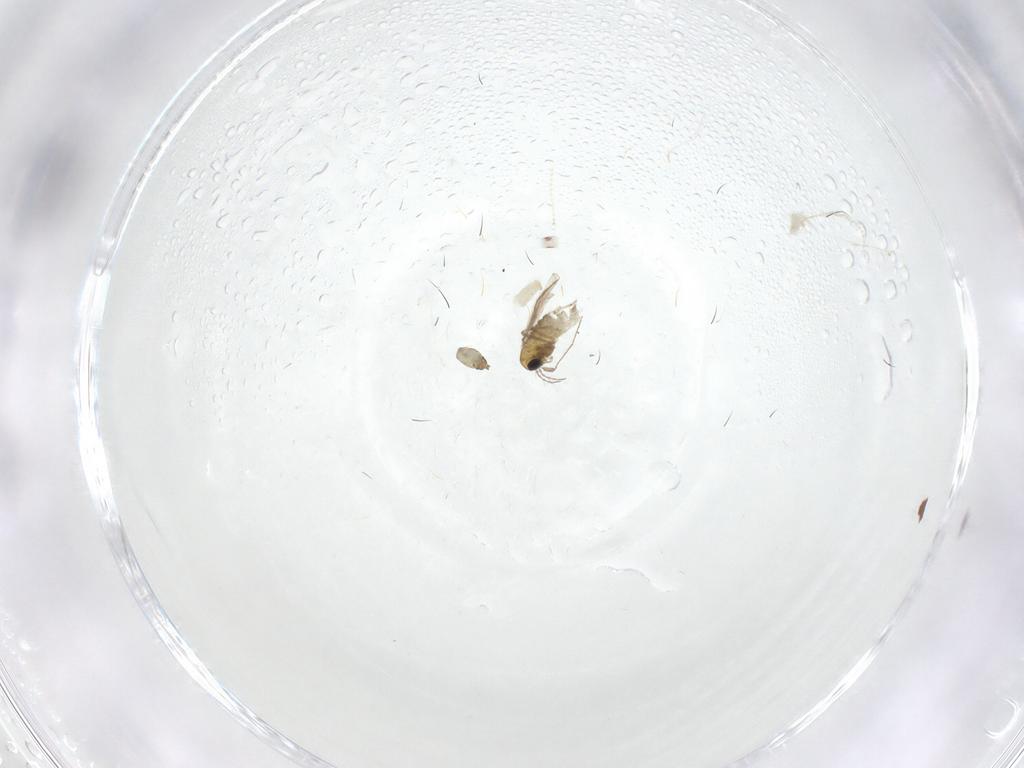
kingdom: Animalia
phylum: Arthropoda
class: Insecta
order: Diptera
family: Chironomidae
